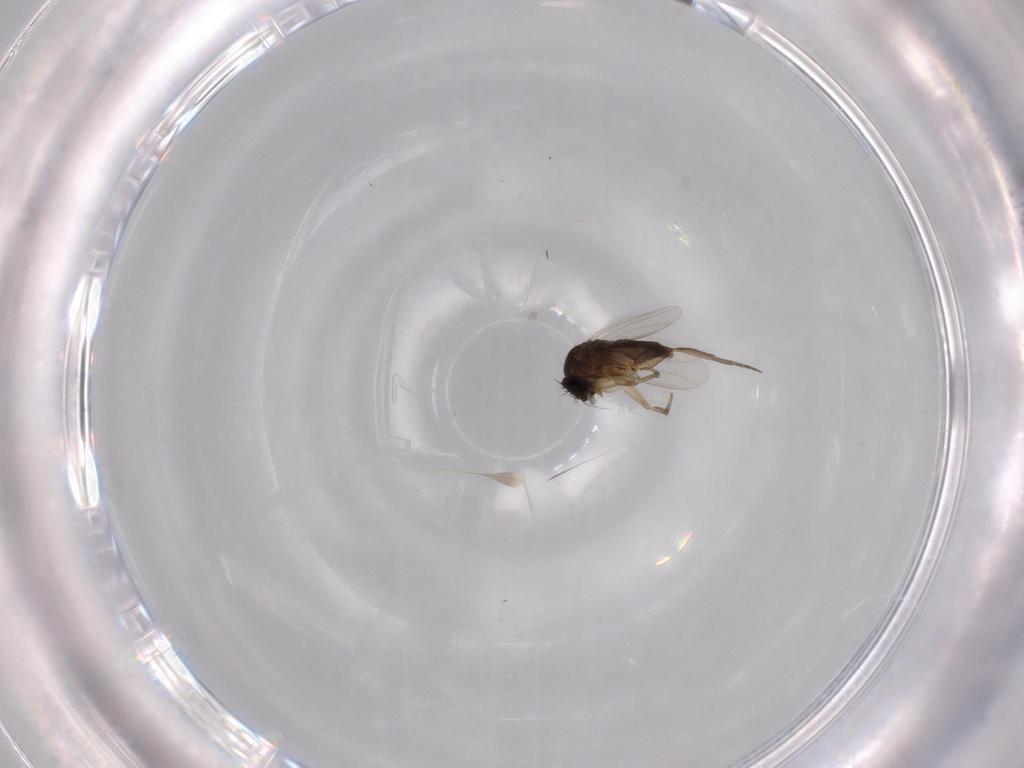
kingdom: Animalia
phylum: Arthropoda
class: Insecta
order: Diptera
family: Phoridae
